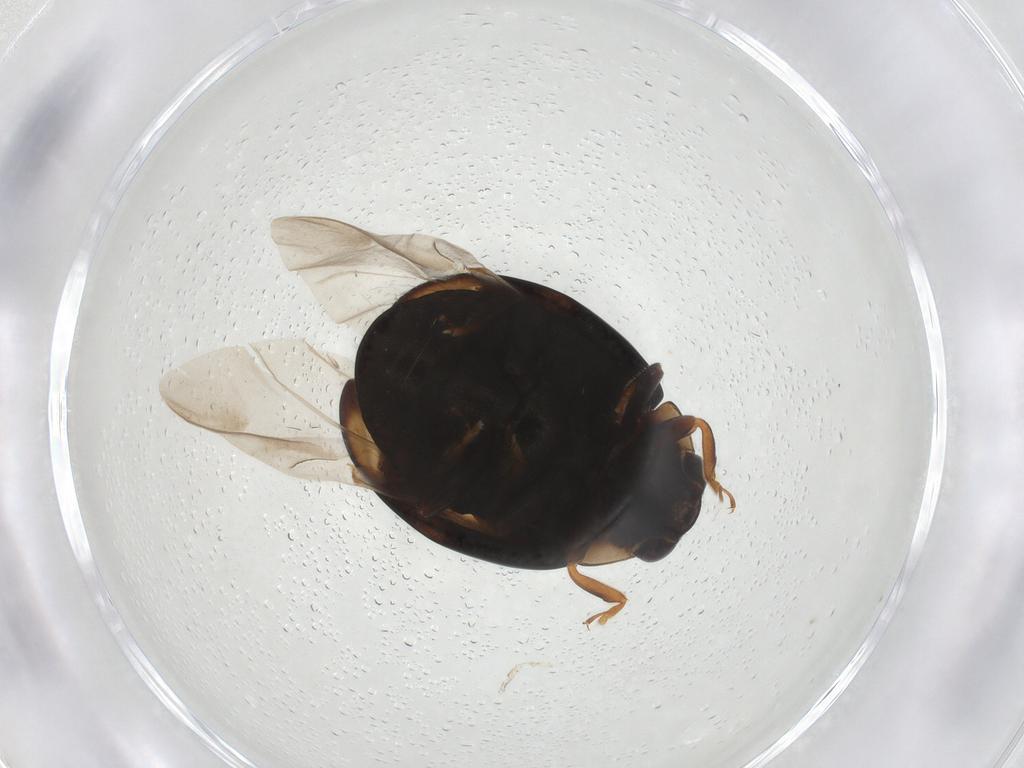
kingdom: Animalia
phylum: Arthropoda
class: Insecta
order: Coleoptera
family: Coccinellidae
